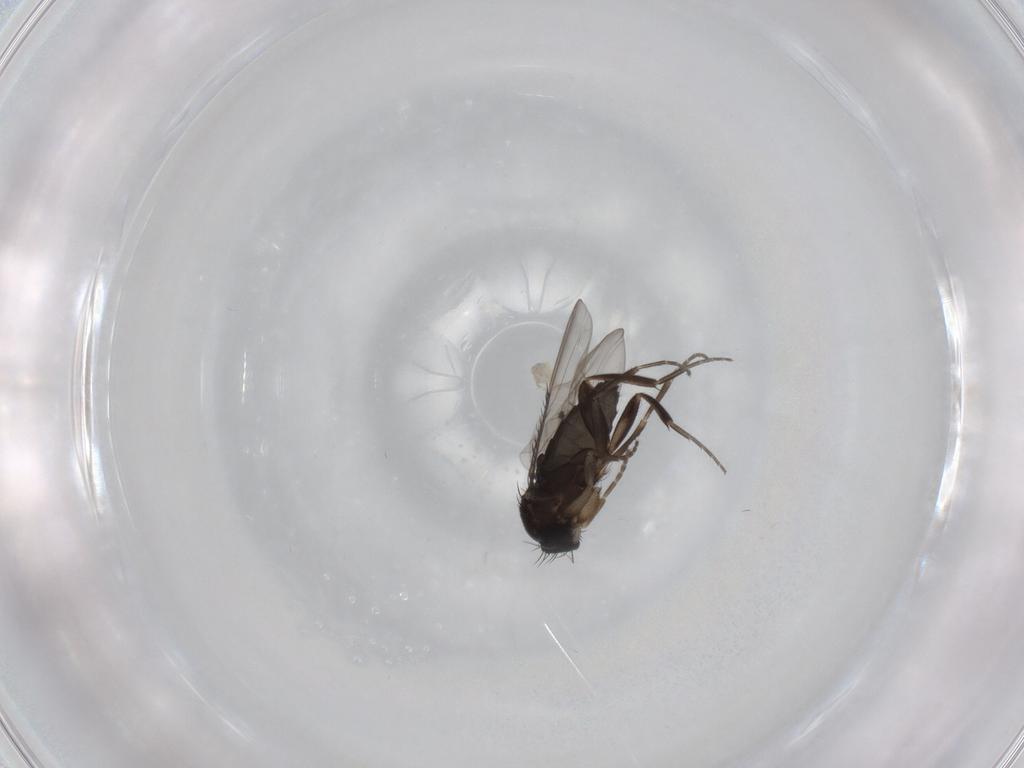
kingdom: Animalia
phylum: Arthropoda
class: Insecta
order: Diptera
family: Phoridae
